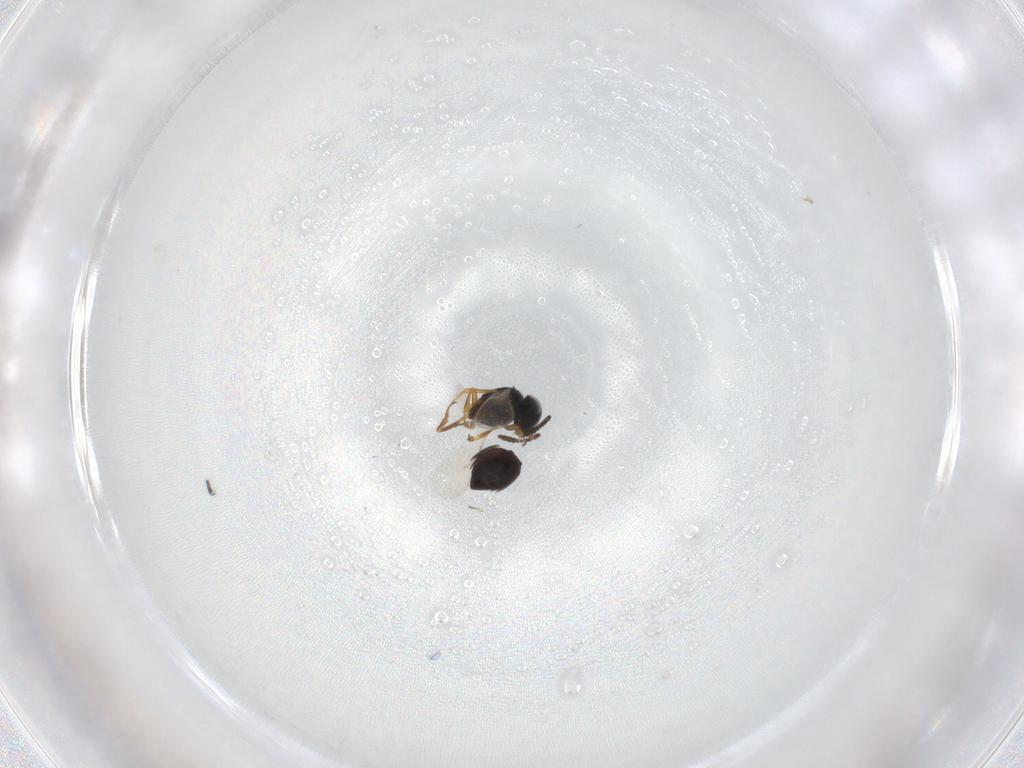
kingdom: Animalia
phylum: Arthropoda
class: Insecta
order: Hymenoptera
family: Scelionidae
